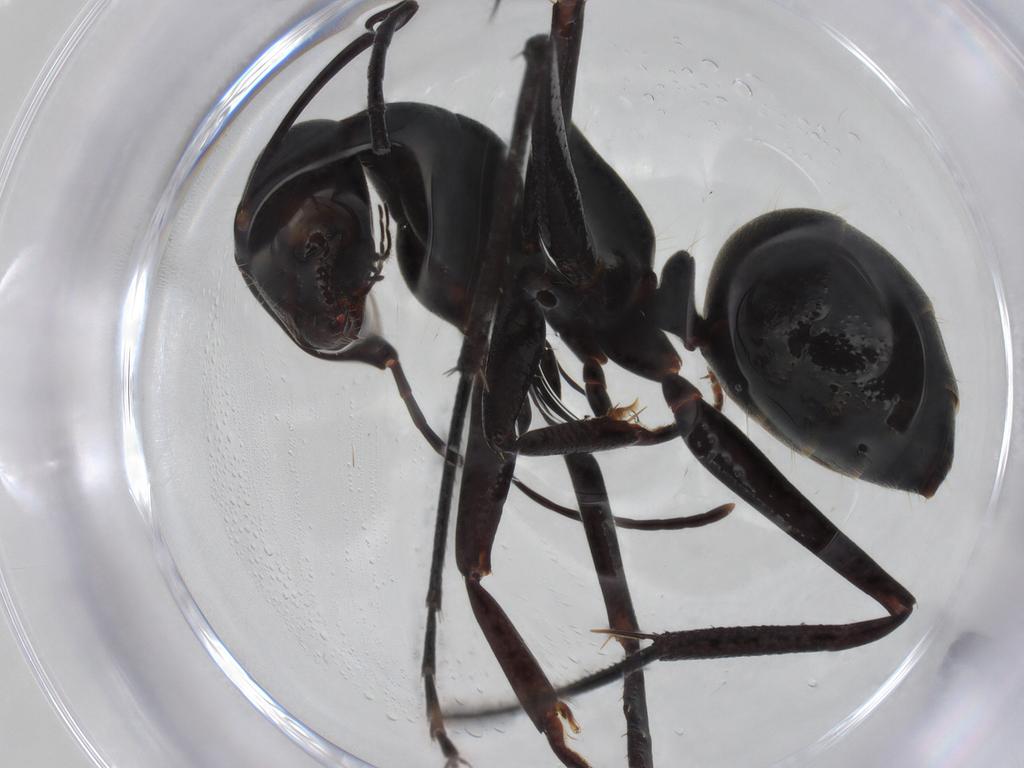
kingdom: Animalia
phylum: Arthropoda
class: Insecta
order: Hymenoptera
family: Formicidae
